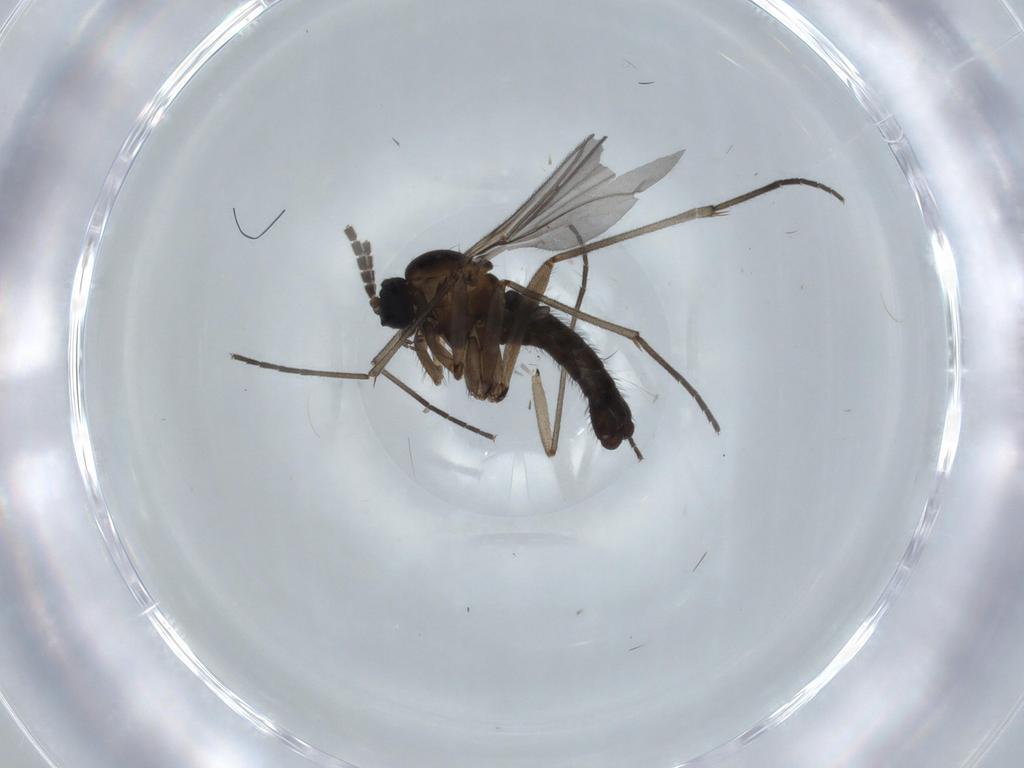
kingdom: Animalia
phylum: Arthropoda
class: Insecta
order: Diptera
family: Sciaridae
